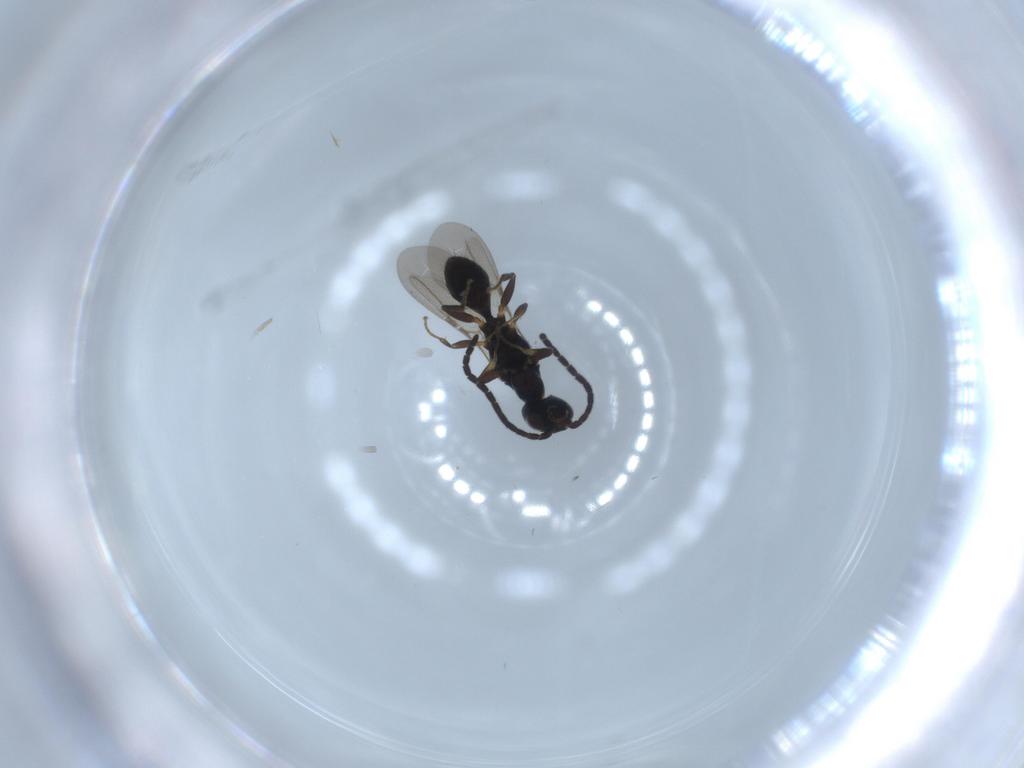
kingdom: Animalia
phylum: Arthropoda
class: Insecta
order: Hymenoptera
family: Bethylidae
